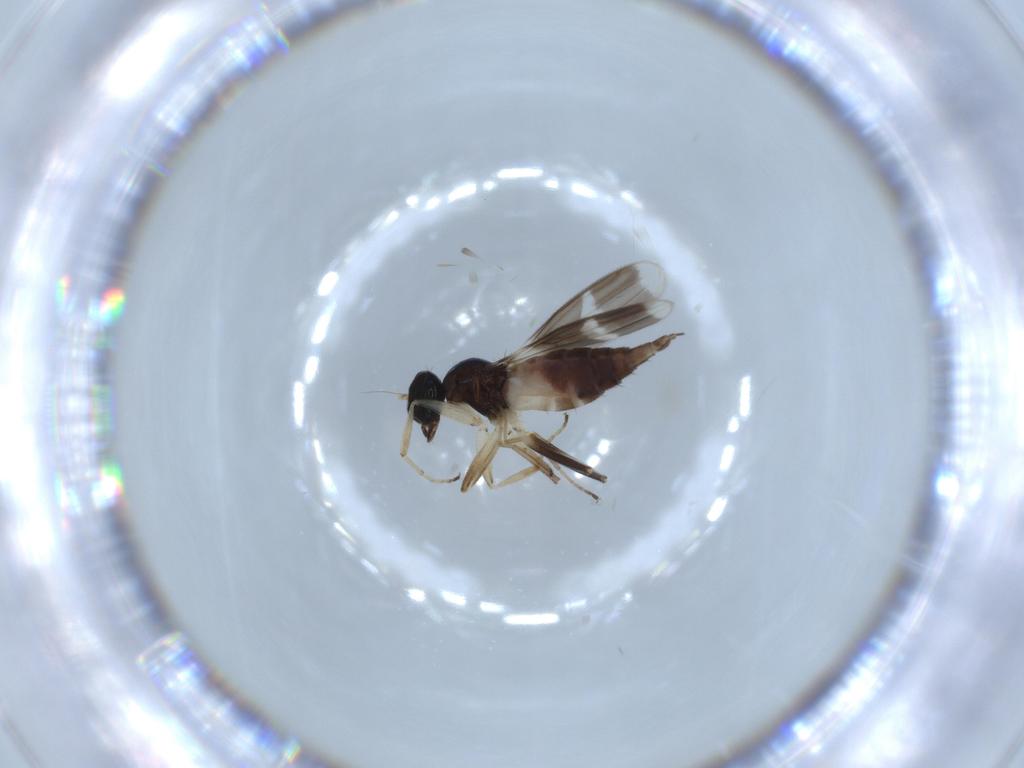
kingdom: Animalia
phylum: Arthropoda
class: Insecta
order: Diptera
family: Hybotidae
